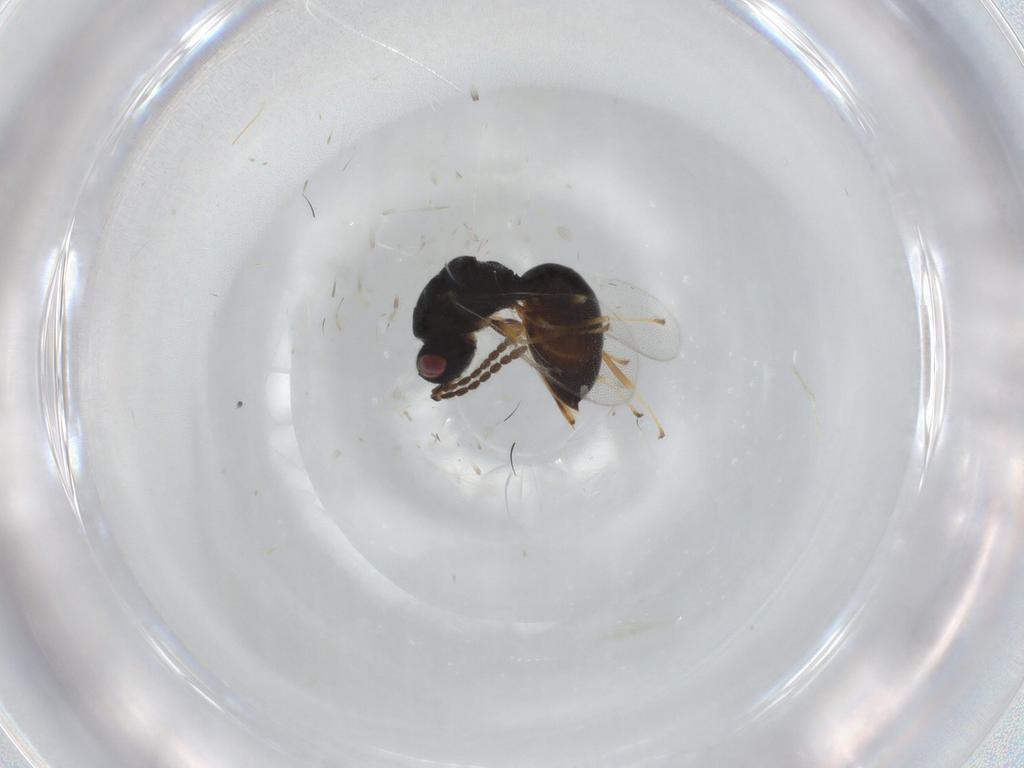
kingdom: Animalia
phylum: Arthropoda
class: Insecta
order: Hymenoptera
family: Eurytomidae
